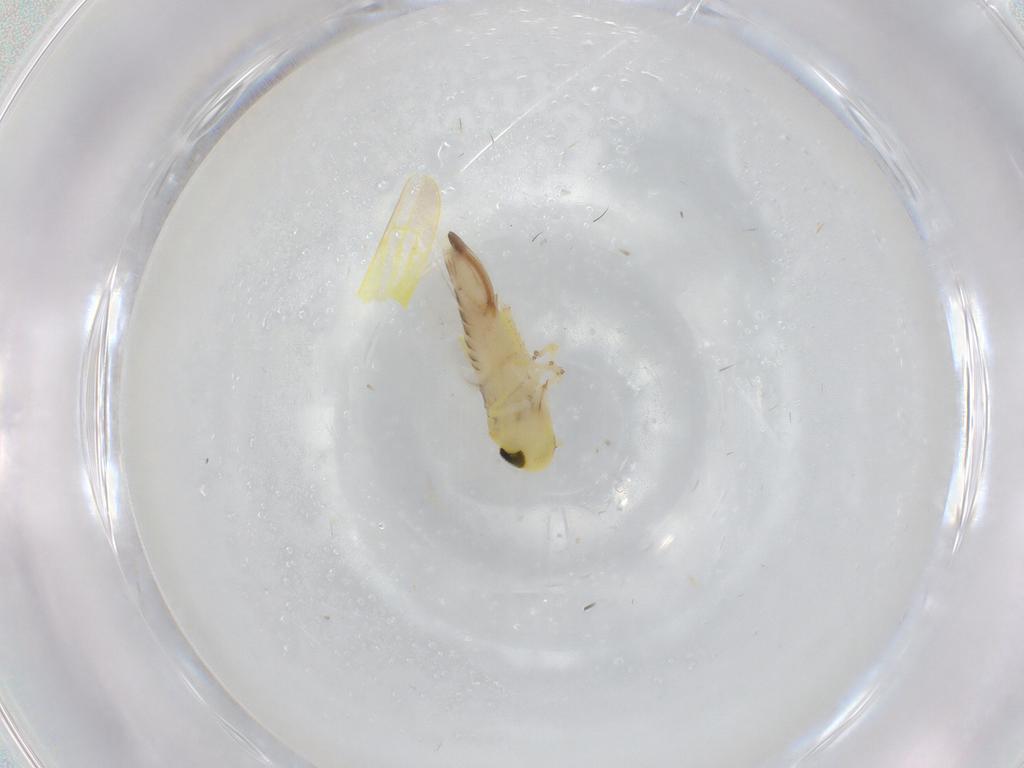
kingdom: Animalia
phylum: Arthropoda
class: Insecta
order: Hemiptera
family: Cicadellidae
